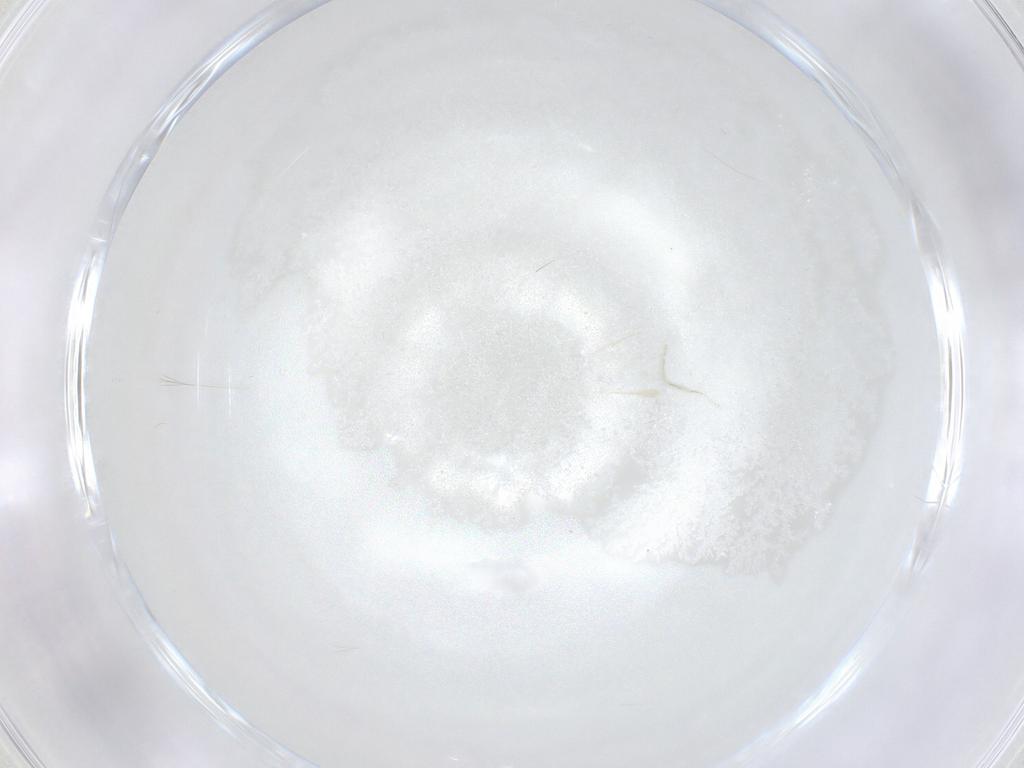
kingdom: Animalia
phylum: Arthropoda
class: Insecta
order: Diptera
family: Hybotidae
